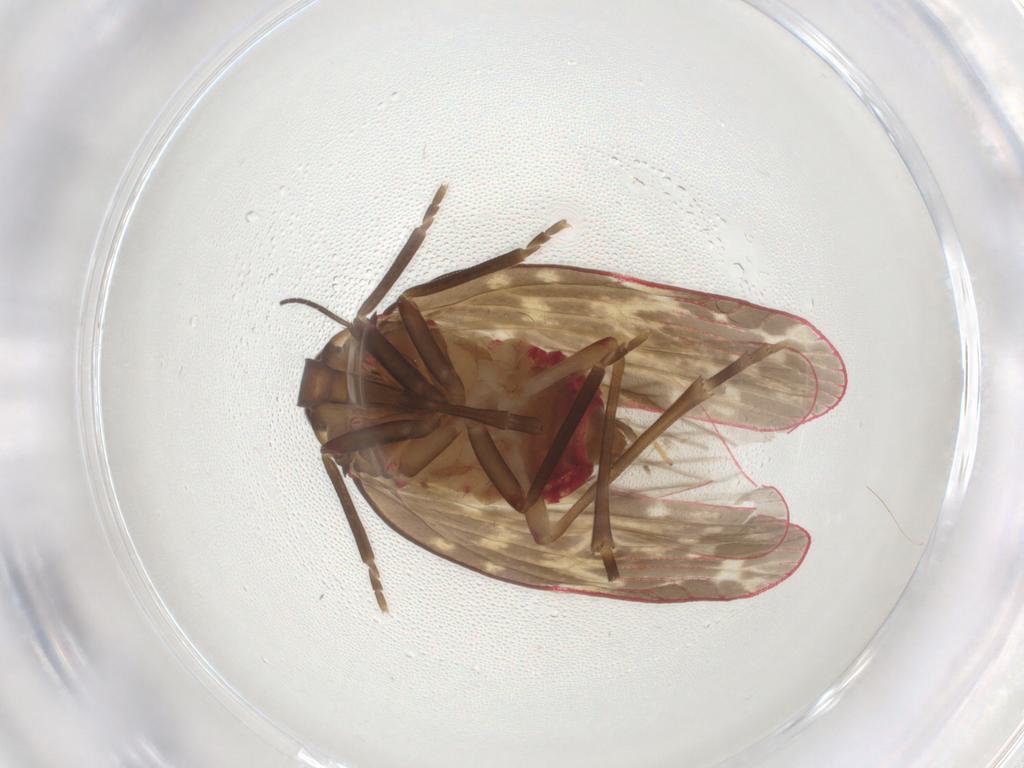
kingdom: Animalia
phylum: Arthropoda
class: Insecta
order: Hemiptera
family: Achilidae
